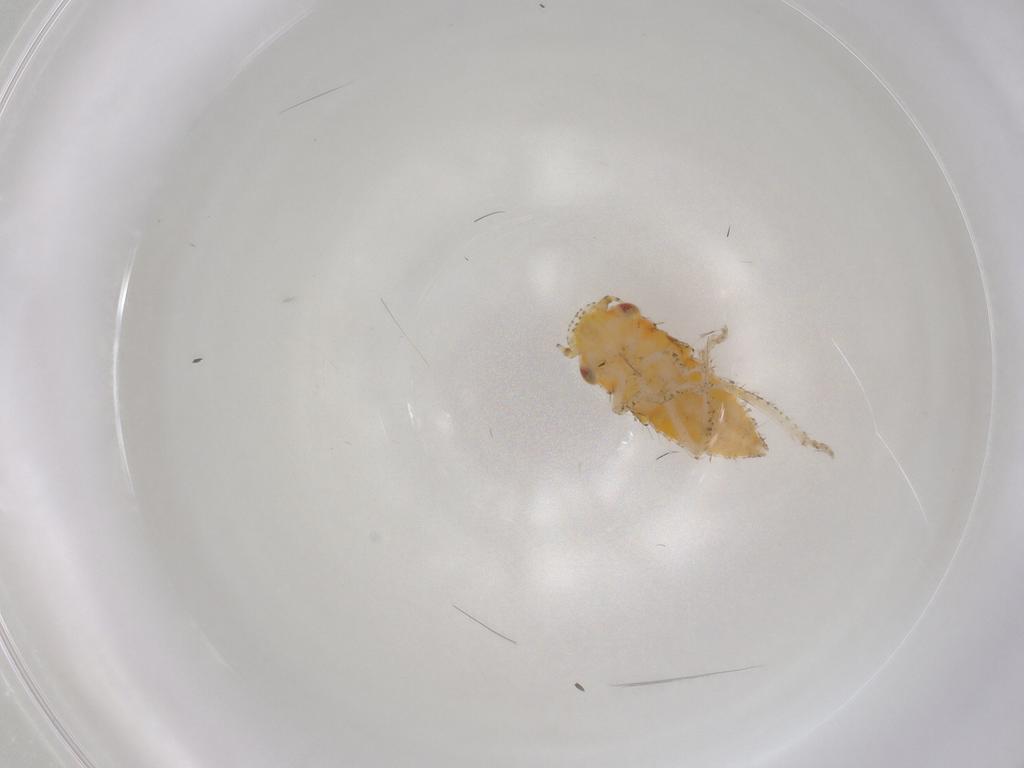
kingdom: Animalia
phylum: Arthropoda
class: Insecta
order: Hemiptera
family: Cicadellidae
